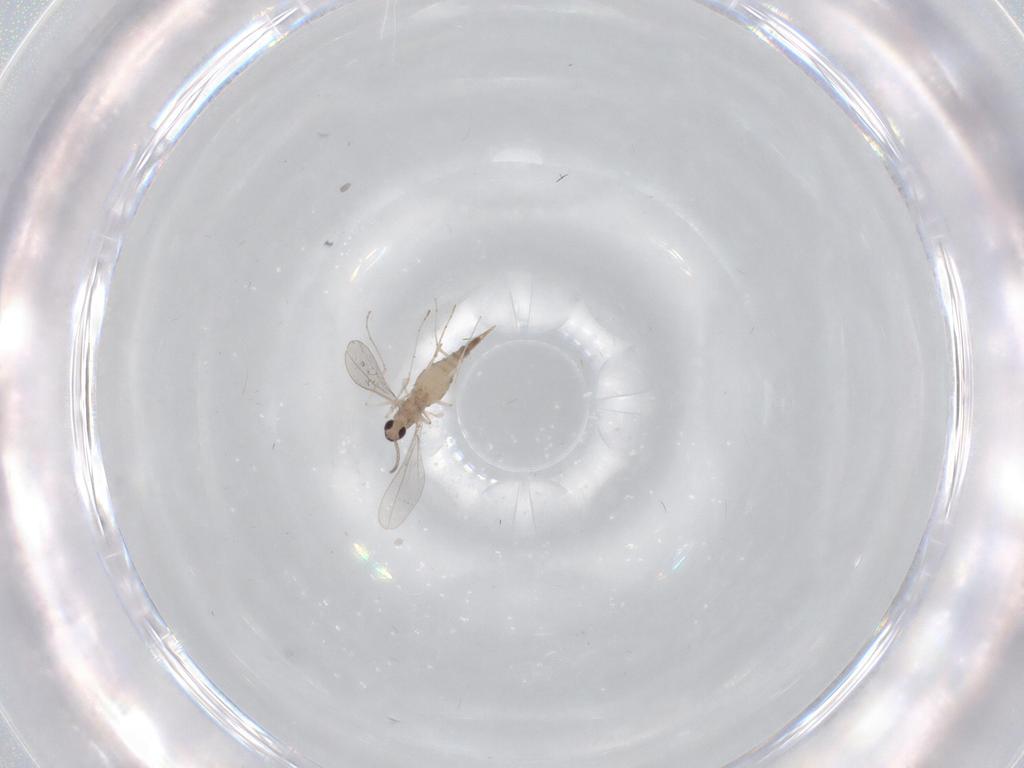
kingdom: Animalia
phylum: Arthropoda
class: Insecta
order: Diptera
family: Cecidomyiidae
